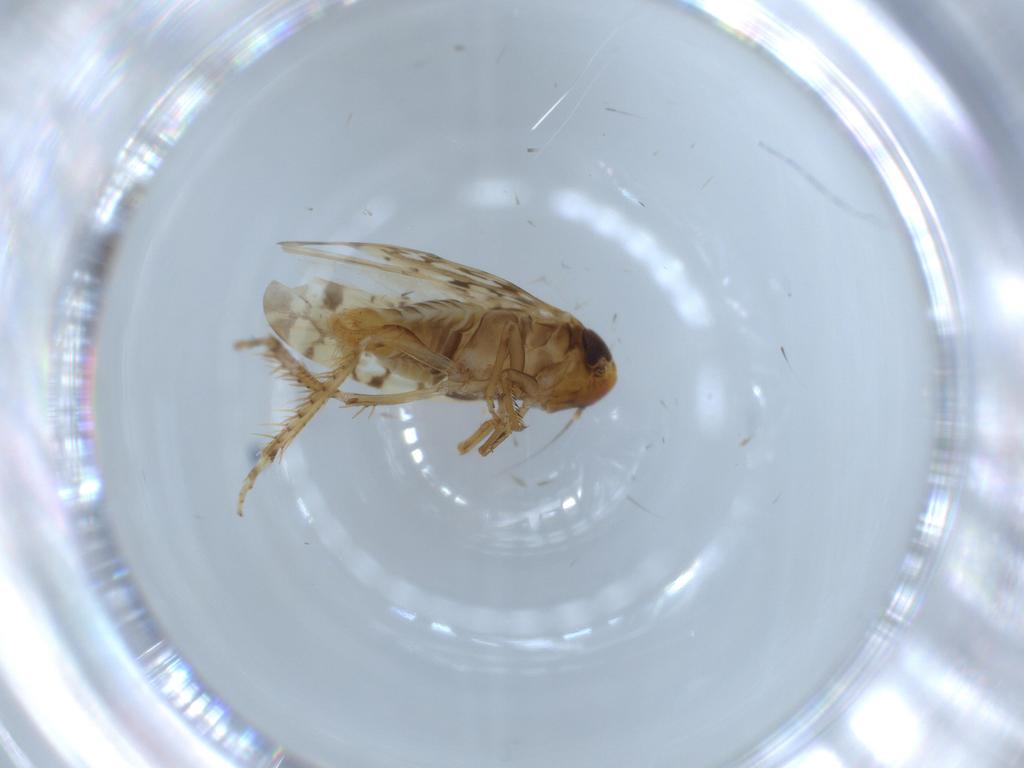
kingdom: Animalia
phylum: Arthropoda
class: Insecta
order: Hemiptera
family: Cicadellidae
